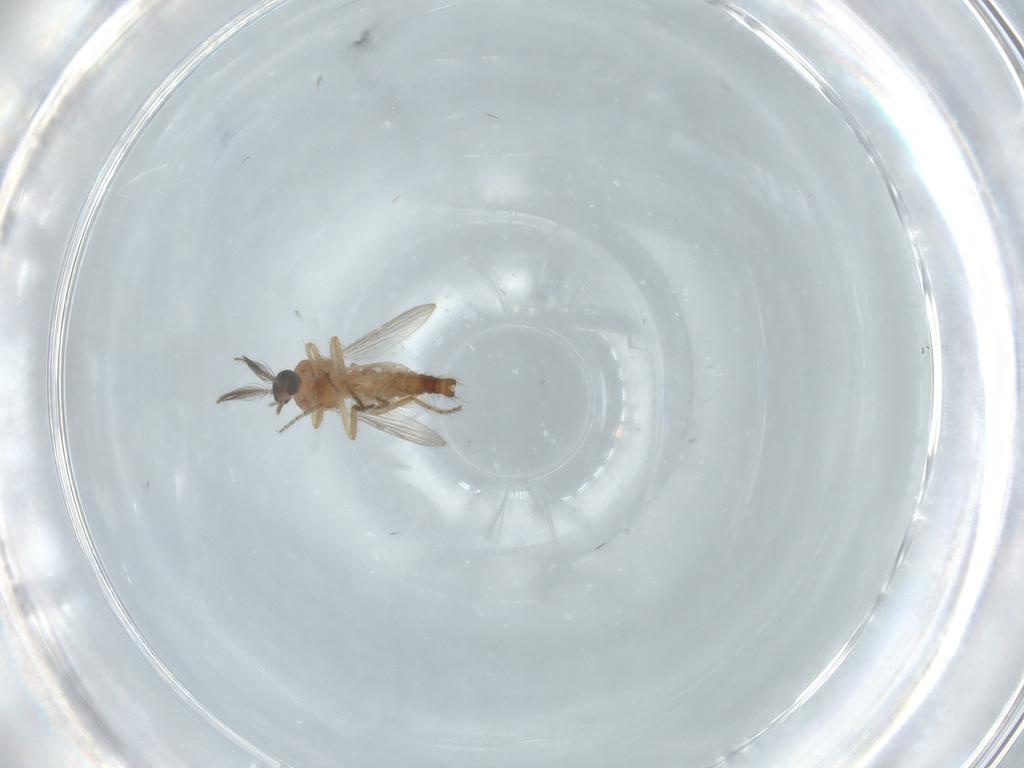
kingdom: Animalia
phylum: Arthropoda
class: Insecta
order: Diptera
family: Ceratopogonidae
